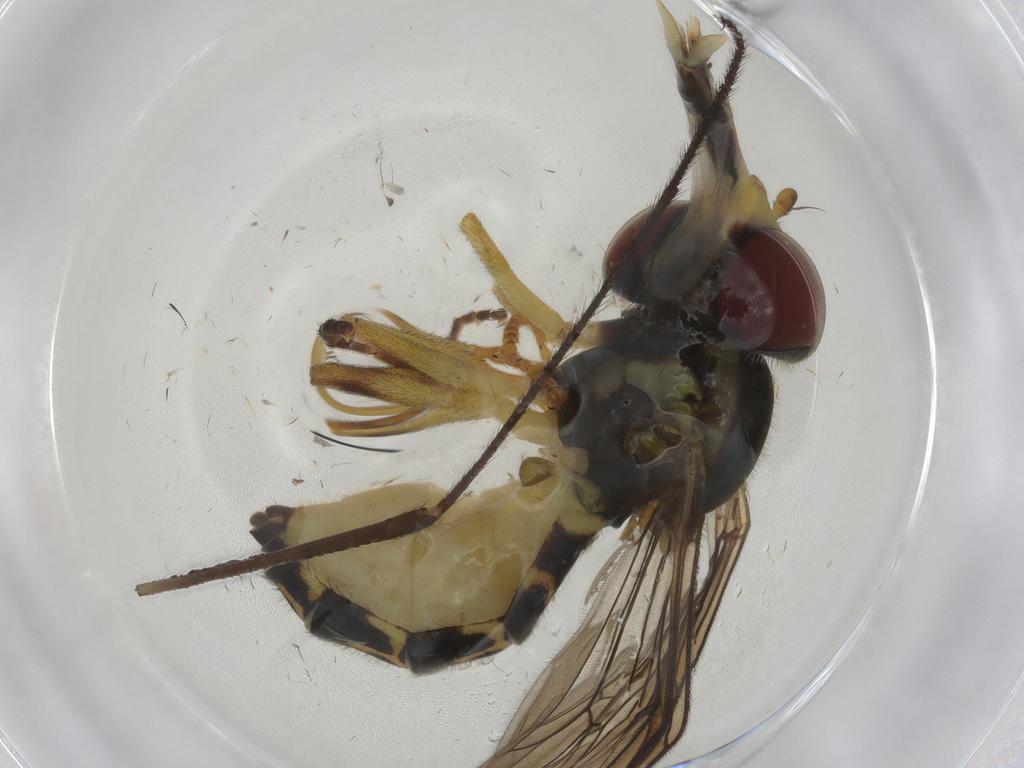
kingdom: Animalia
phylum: Arthropoda
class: Insecta
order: Diptera
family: Syrphidae
